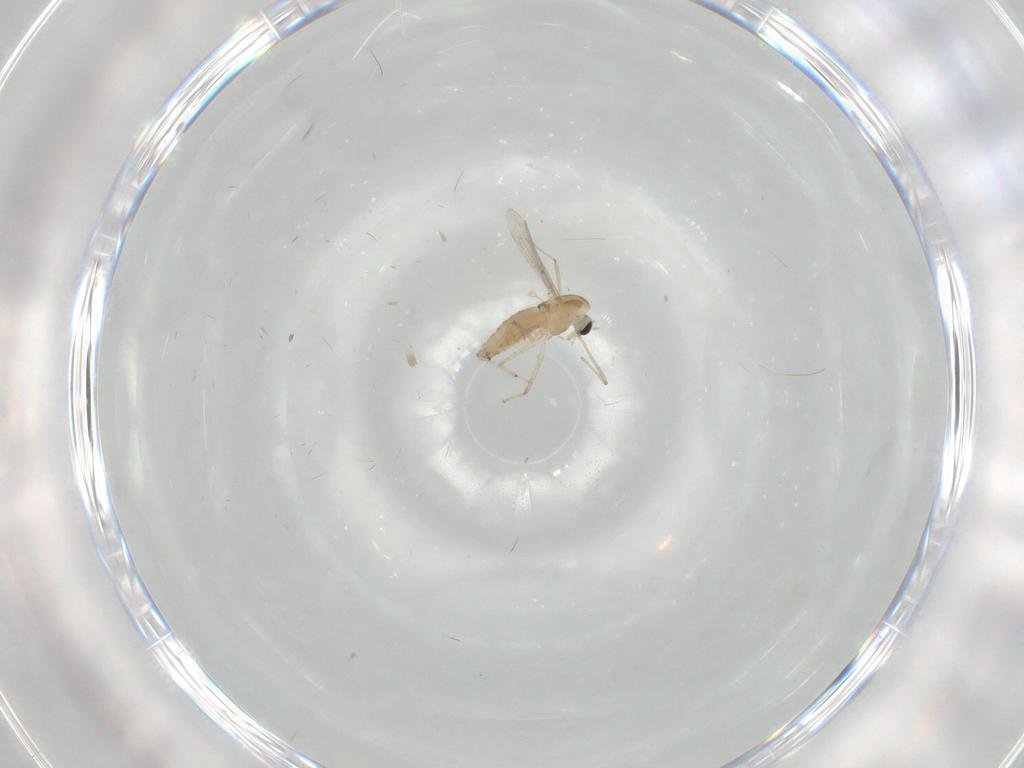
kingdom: Animalia
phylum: Arthropoda
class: Insecta
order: Diptera
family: Chironomidae
